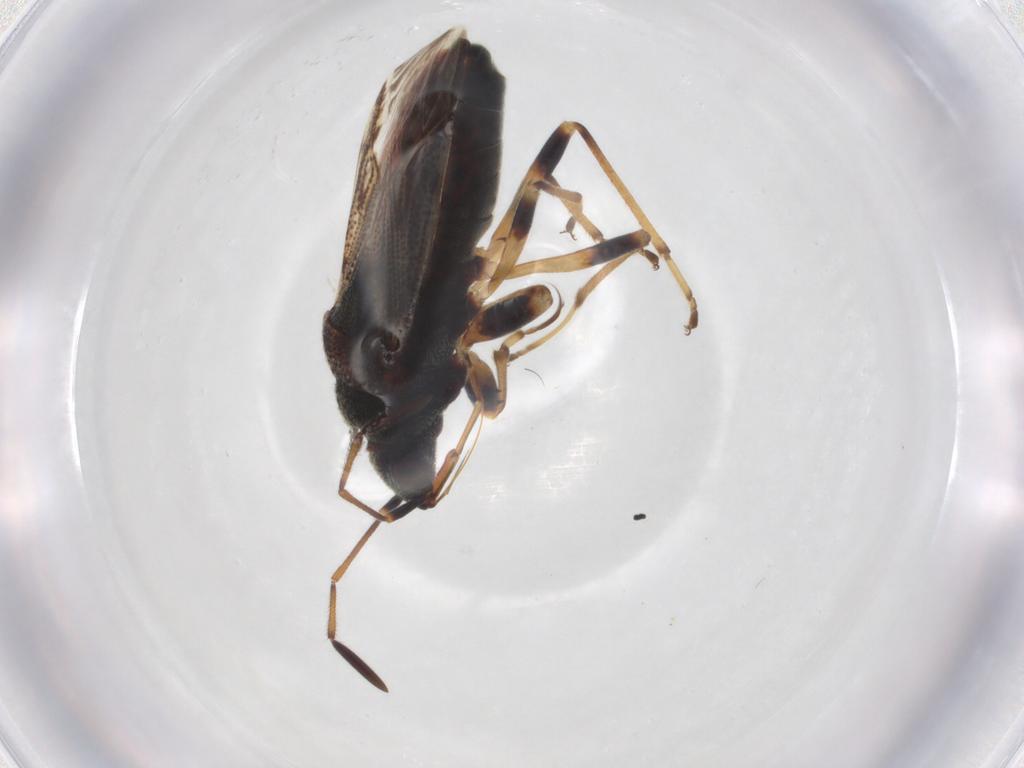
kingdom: Animalia
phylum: Arthropoda
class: Insecta
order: Hemiptera
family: Rhyparochromidae
